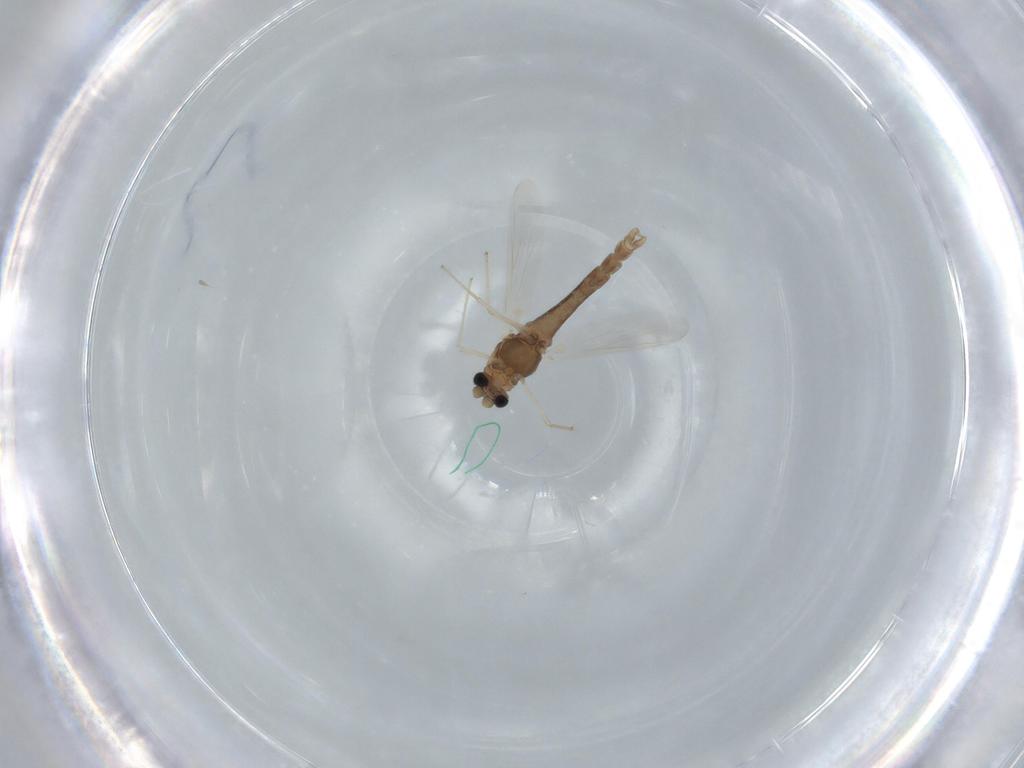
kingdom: Animalia
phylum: Arthropoda
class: Insecta
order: Diptera
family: Chironomidae
